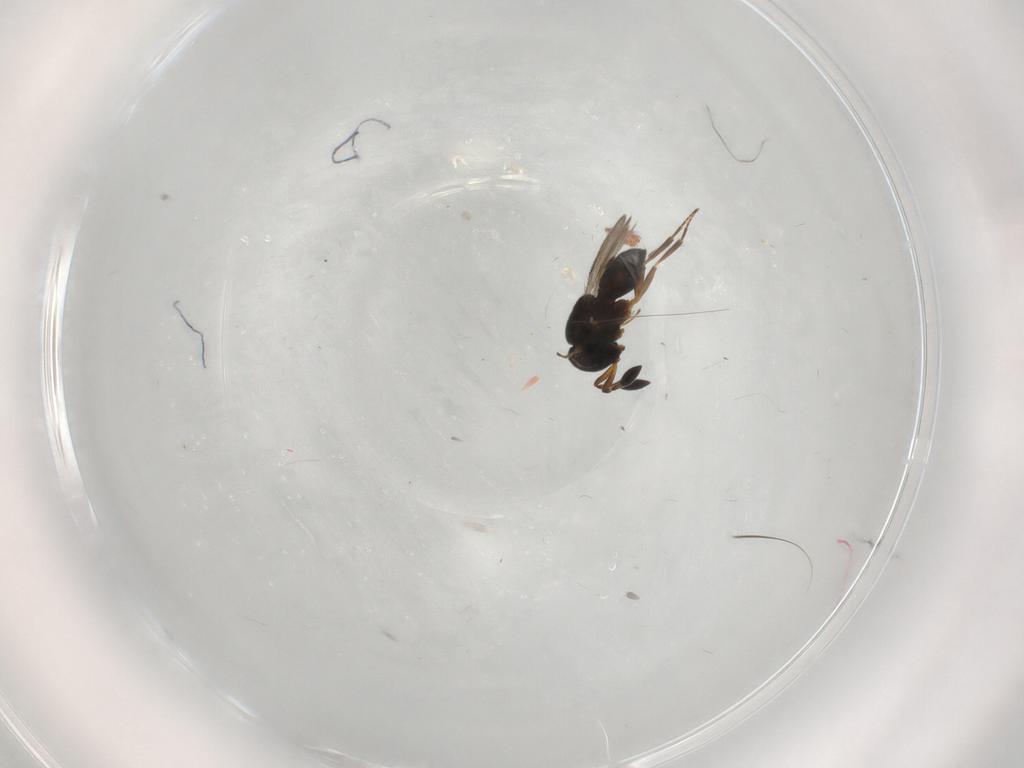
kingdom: Animalia
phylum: Arthropoda
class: Insecta
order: Hymenoptera
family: Scelionidae
